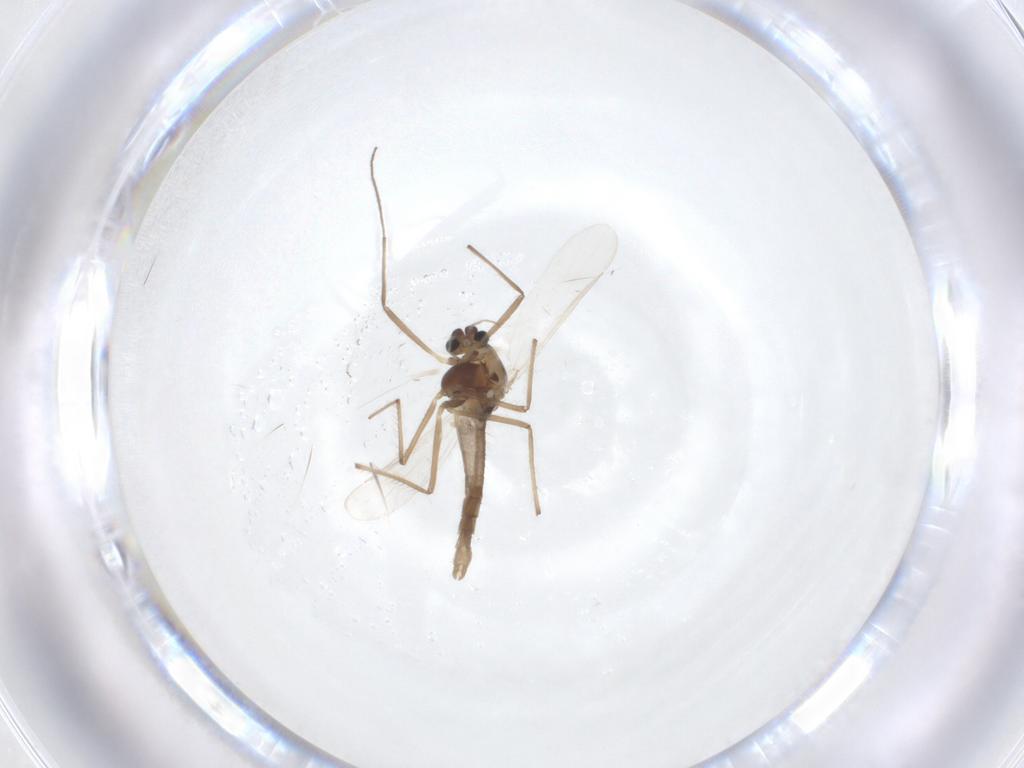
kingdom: Animalia
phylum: Arthropoda
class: Insecta
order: Diptera
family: Chironomidae
